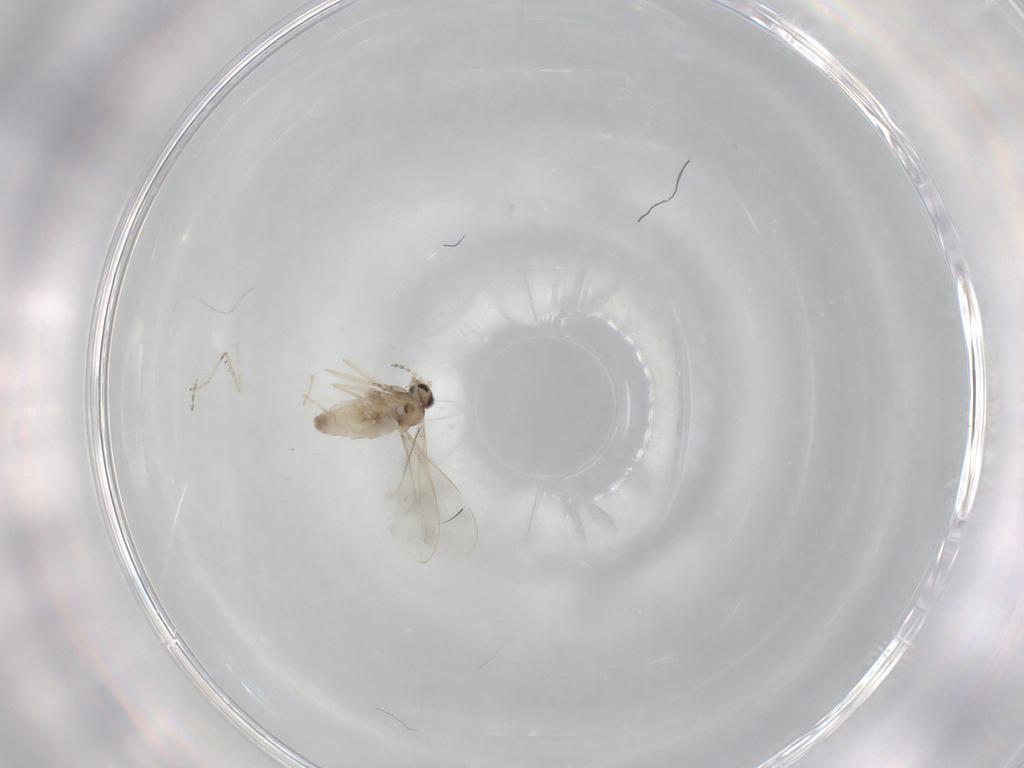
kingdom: Animalia
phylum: Arthropoda
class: Insecta
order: Diptera
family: Cecidomyiidae
